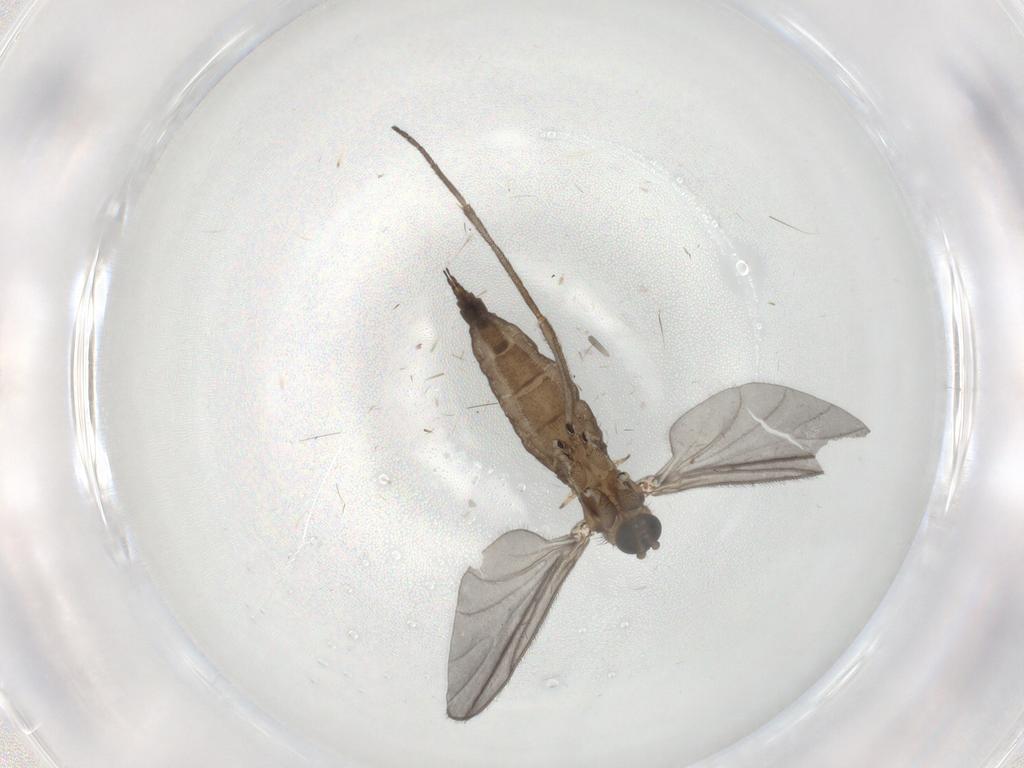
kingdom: Animalia
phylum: Arthropoda
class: Insecta
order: Diptera
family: Sciaridae
